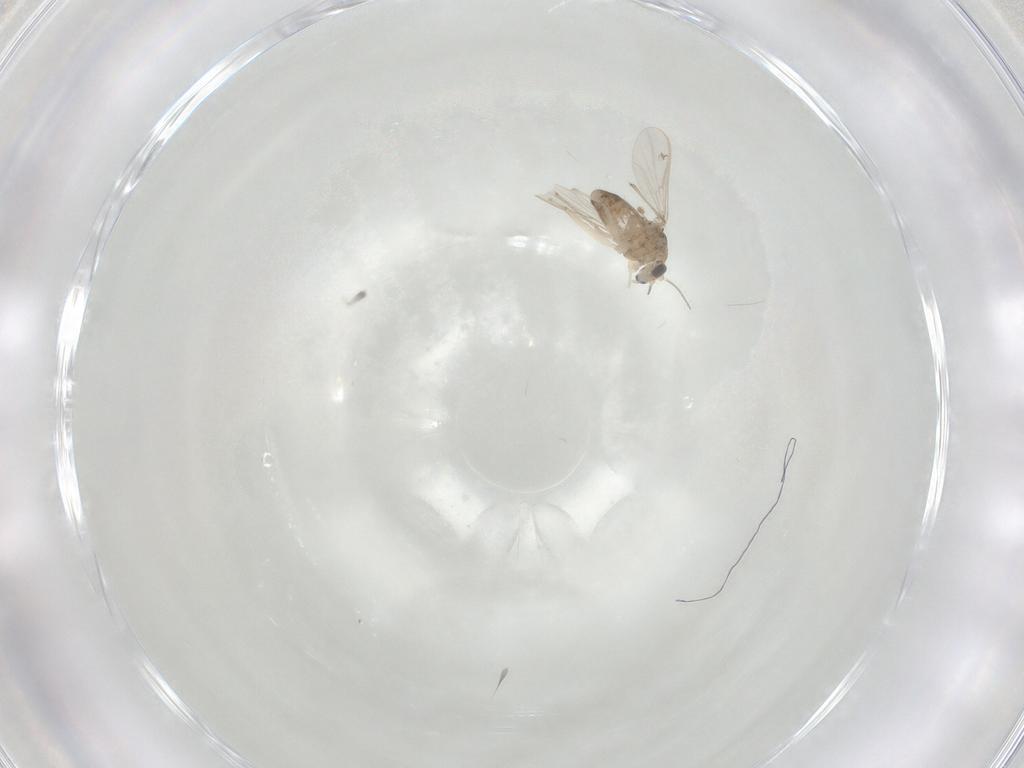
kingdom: Animalia
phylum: Arthropoda
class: Insecta
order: Diptera
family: Chironomidae
